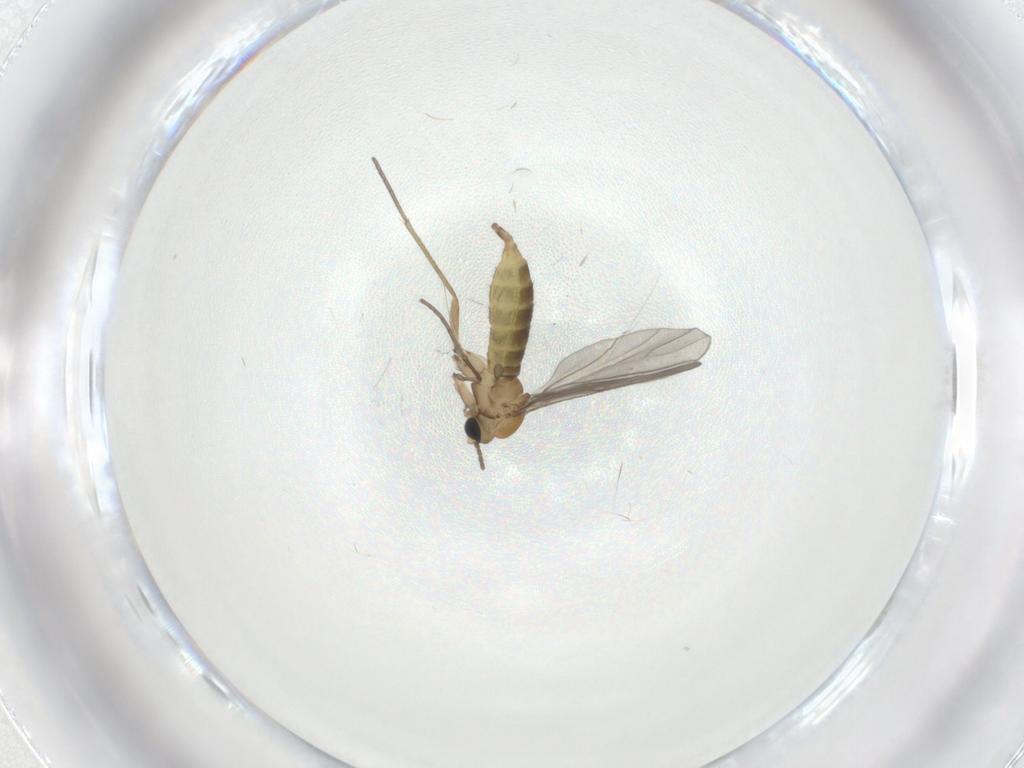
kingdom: Animalia
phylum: Arthropoda
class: Insecta
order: Diptera
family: Sciaridae
